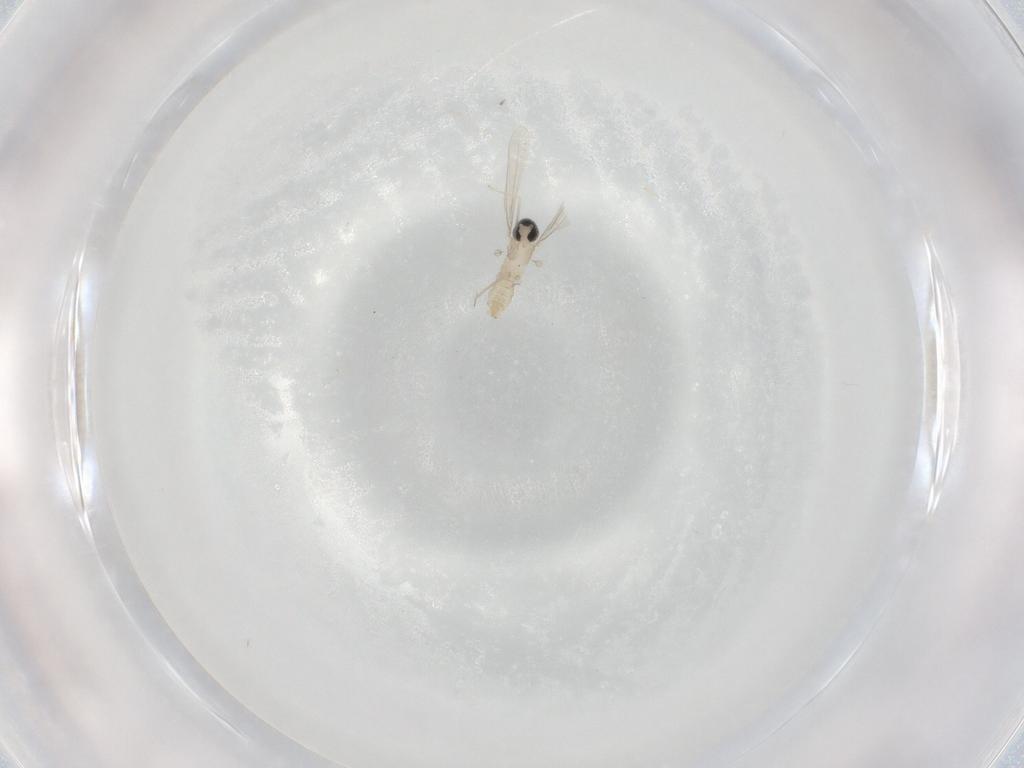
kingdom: Animalia
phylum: Arthropoda
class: Insecta
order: Diptera
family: Cecidomyiidae
